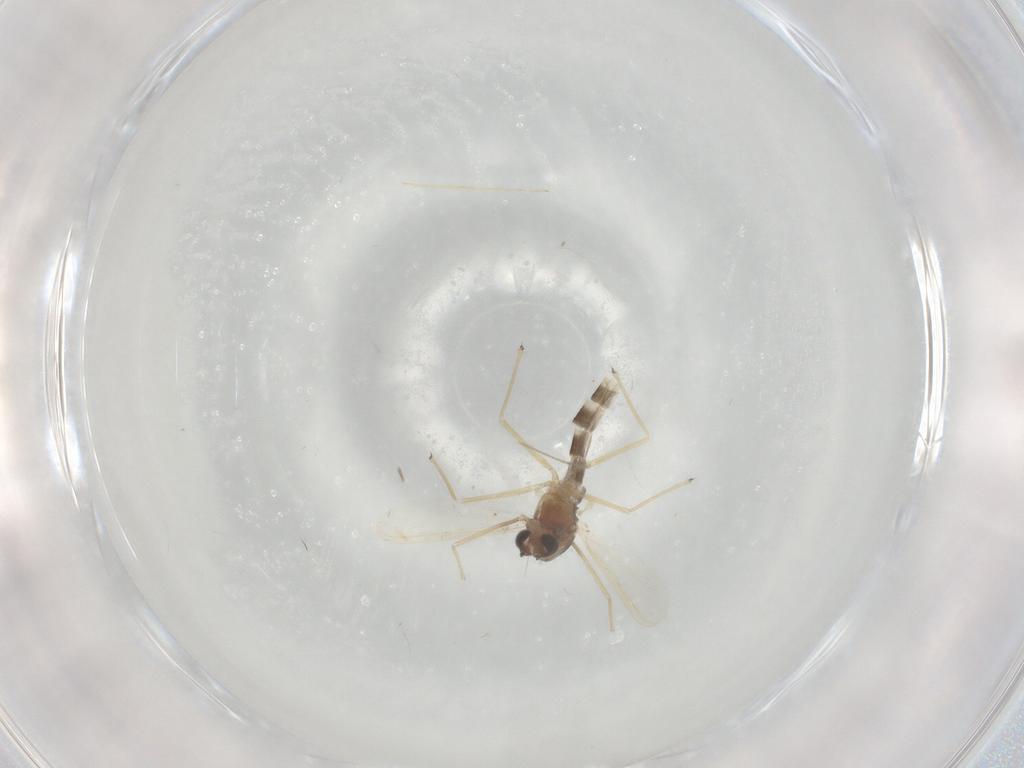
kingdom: Animalia
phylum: Arthropoda
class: Insecta
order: Diptera
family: Chironomidae
